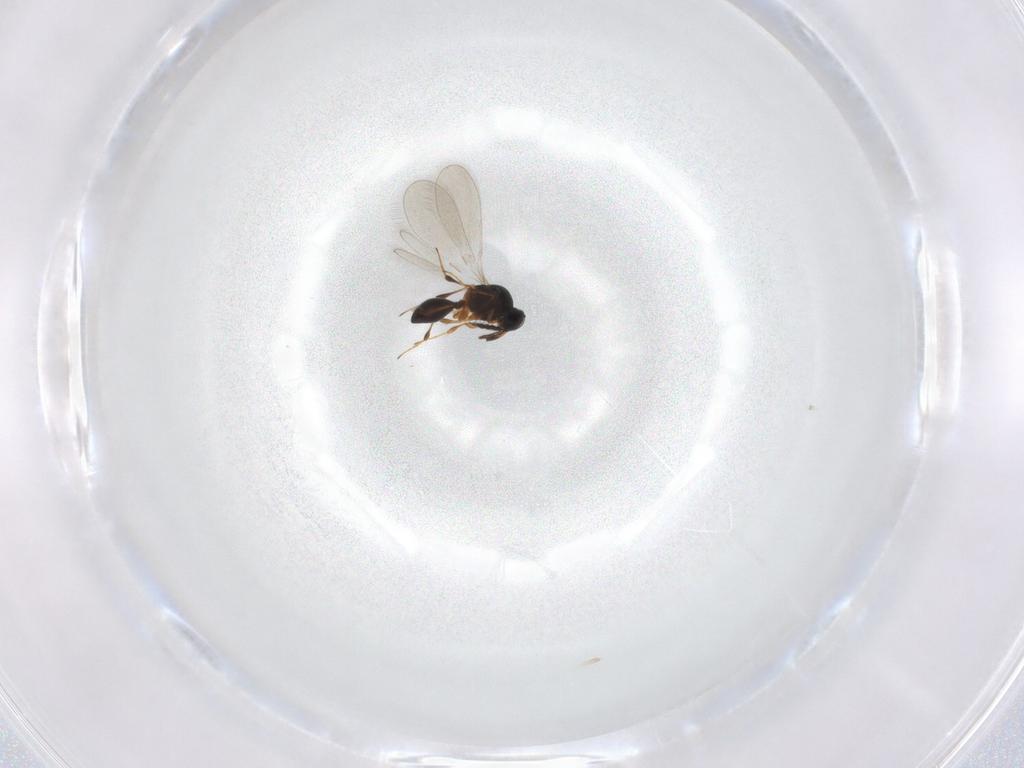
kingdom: Animalia
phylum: Arthropoda
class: Insecta
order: Hymenoptera
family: Platygastridae
